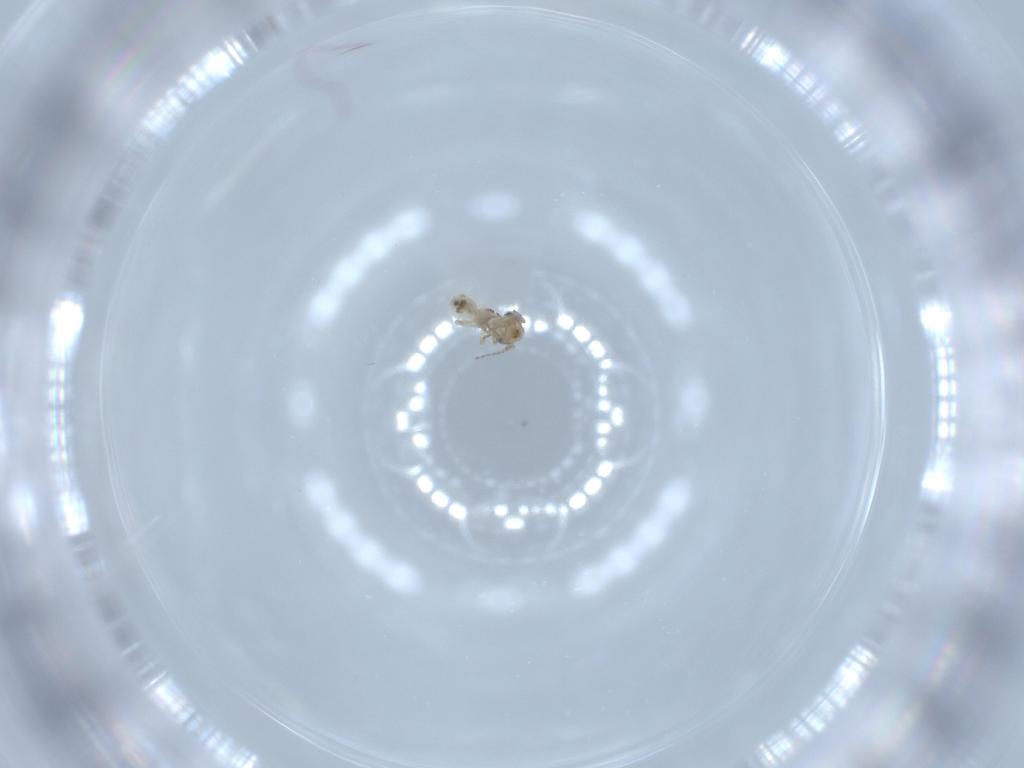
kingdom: Animalia
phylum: Arthropoda
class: Insecta
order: Psocodea
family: Lepidopsocidae
